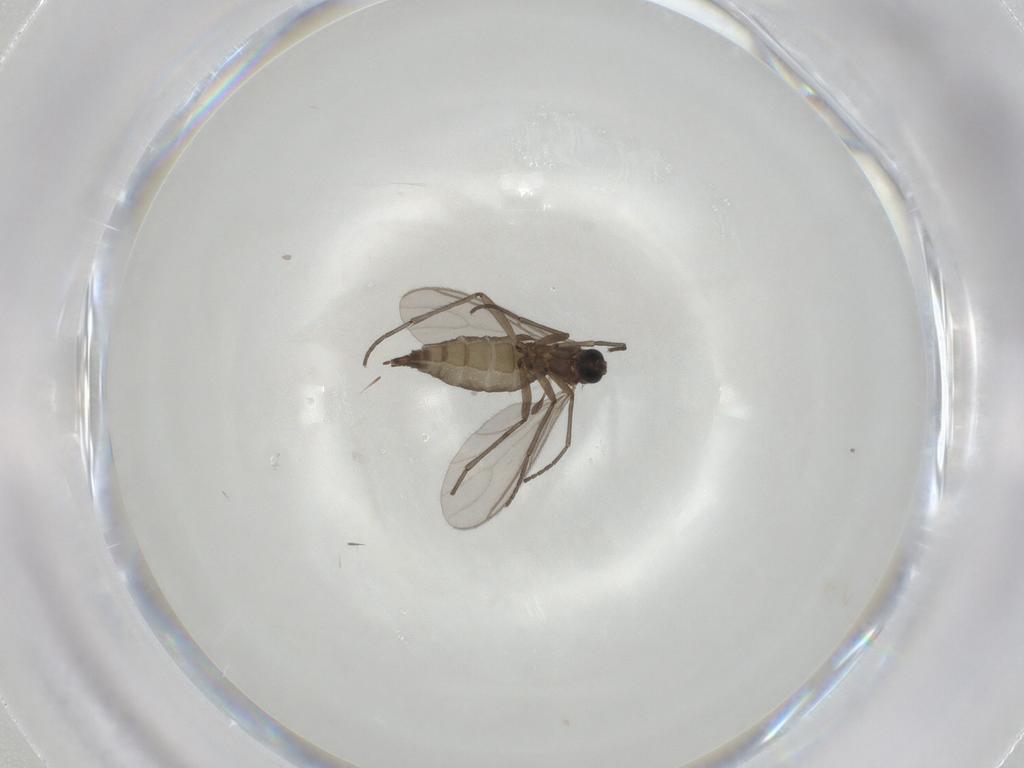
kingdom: Animalia
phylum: Arthropoda
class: Insecta
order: Diptera
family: Sciaridae
